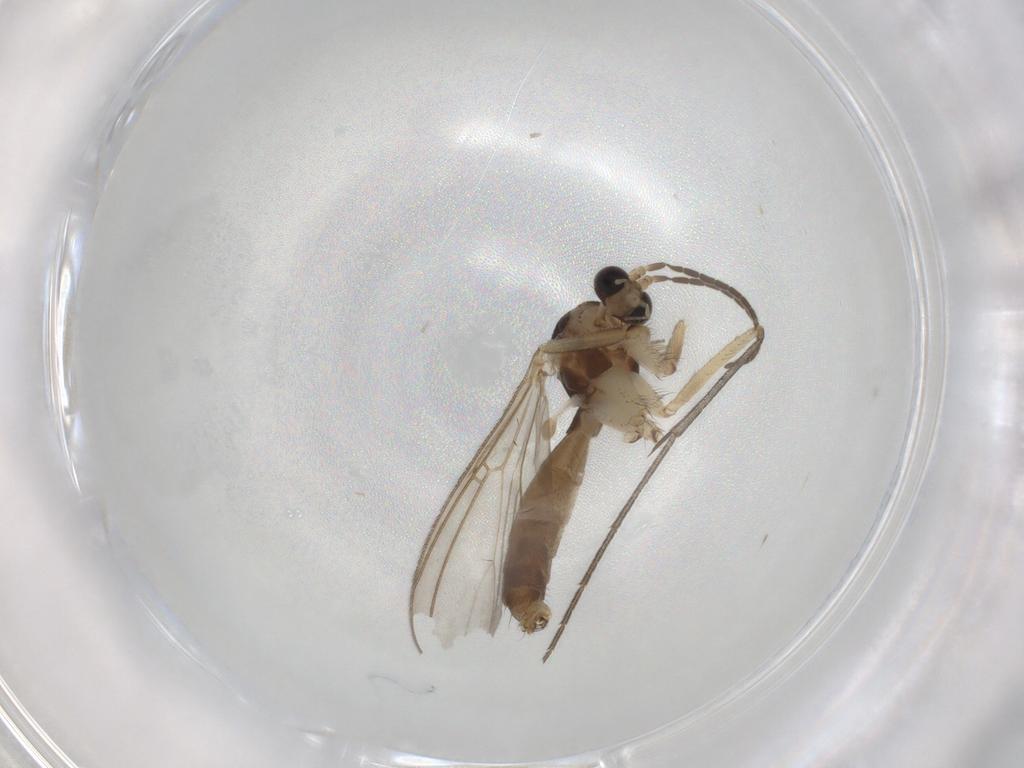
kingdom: Animalia
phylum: Arthropoda
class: Insecta
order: Diptera
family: Mycetophilidae
